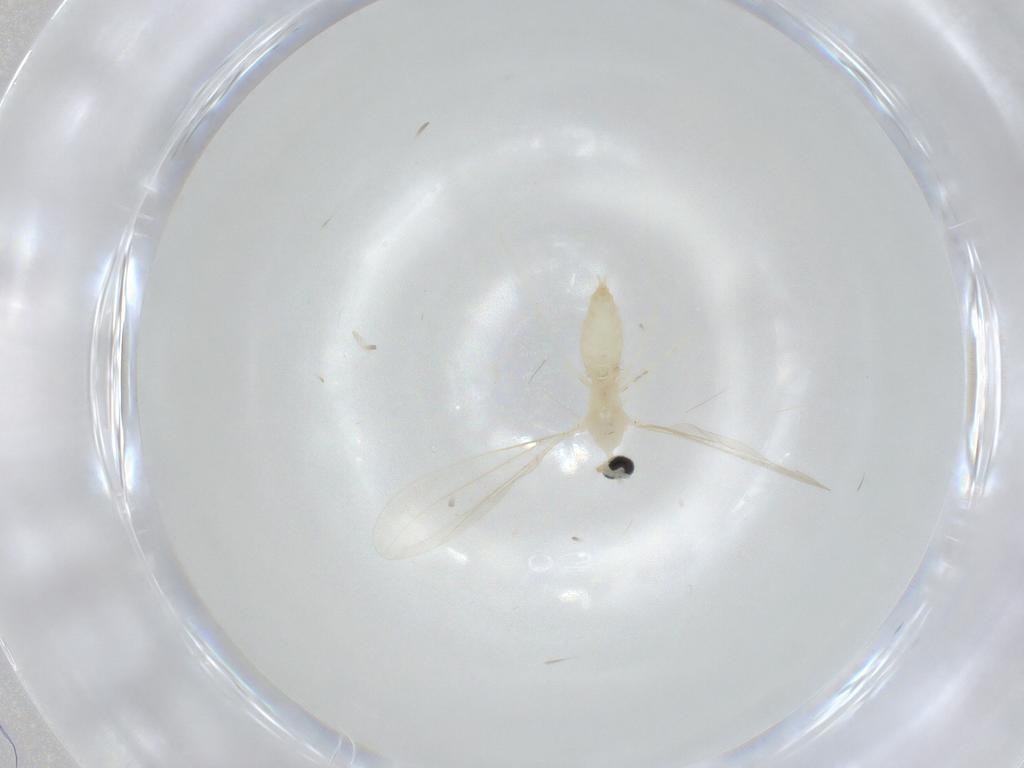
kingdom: Animalia
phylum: Arthropoda
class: Insecta
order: Diptera
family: Cecidomyiidae
